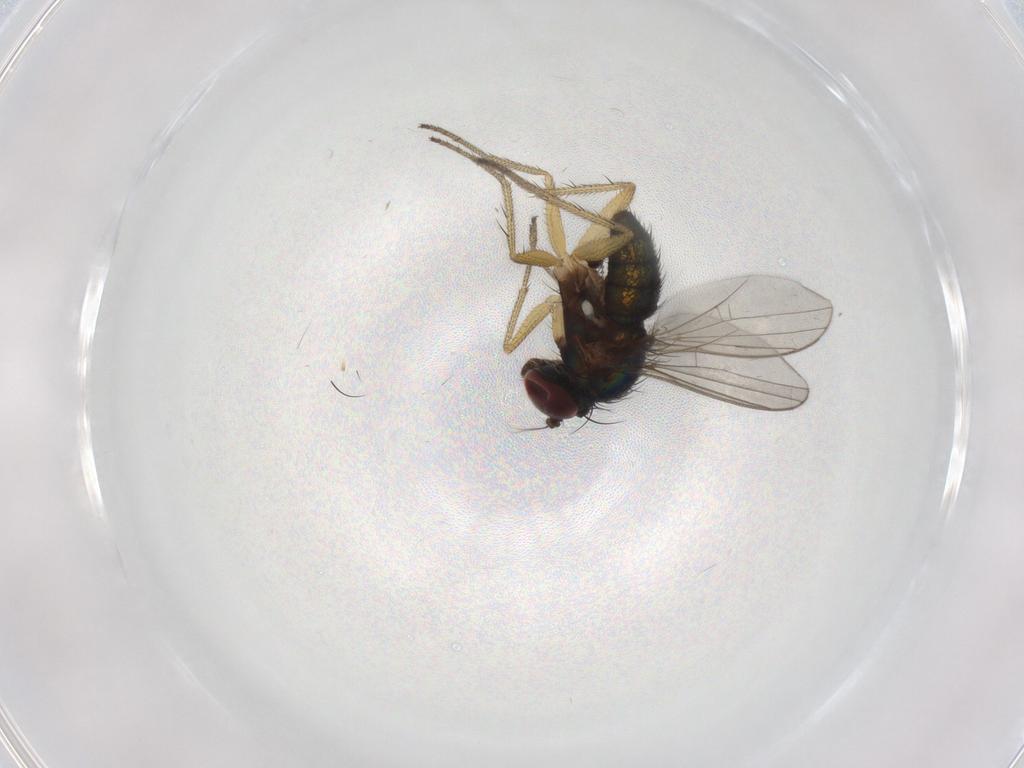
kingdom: Animalia
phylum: Arthropoda
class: Insecta
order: Diptera
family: Cecidomyiidae
